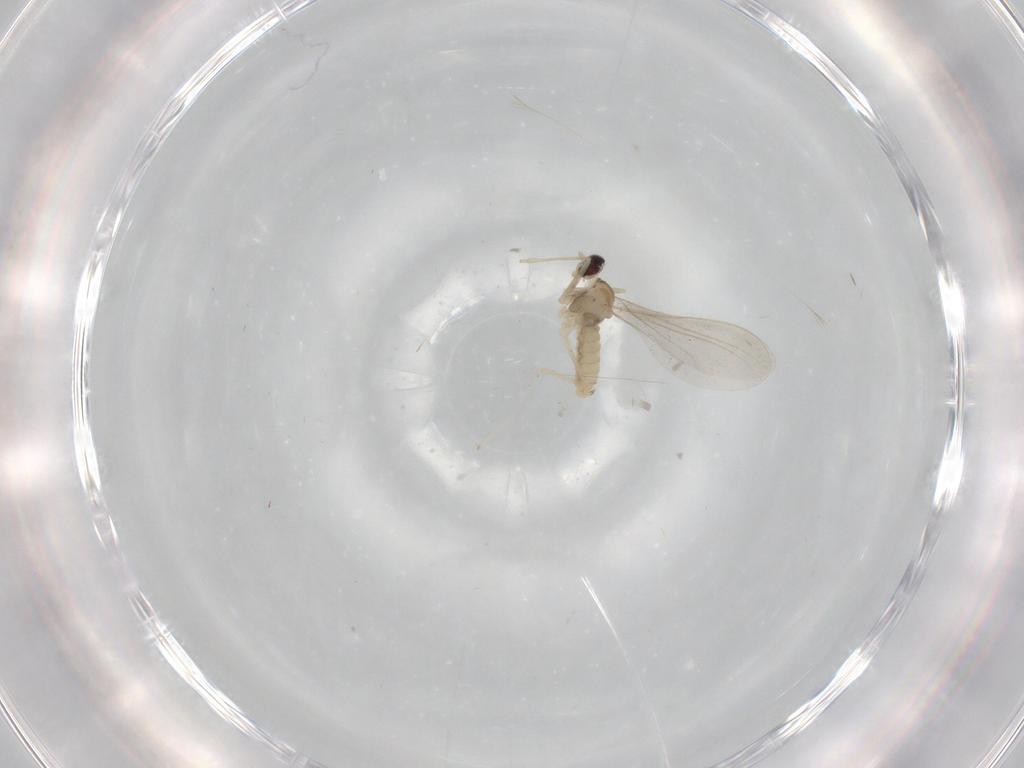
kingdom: Animalia
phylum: Arthropoda
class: Insecta
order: Diptera
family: Cecidomyiidae
